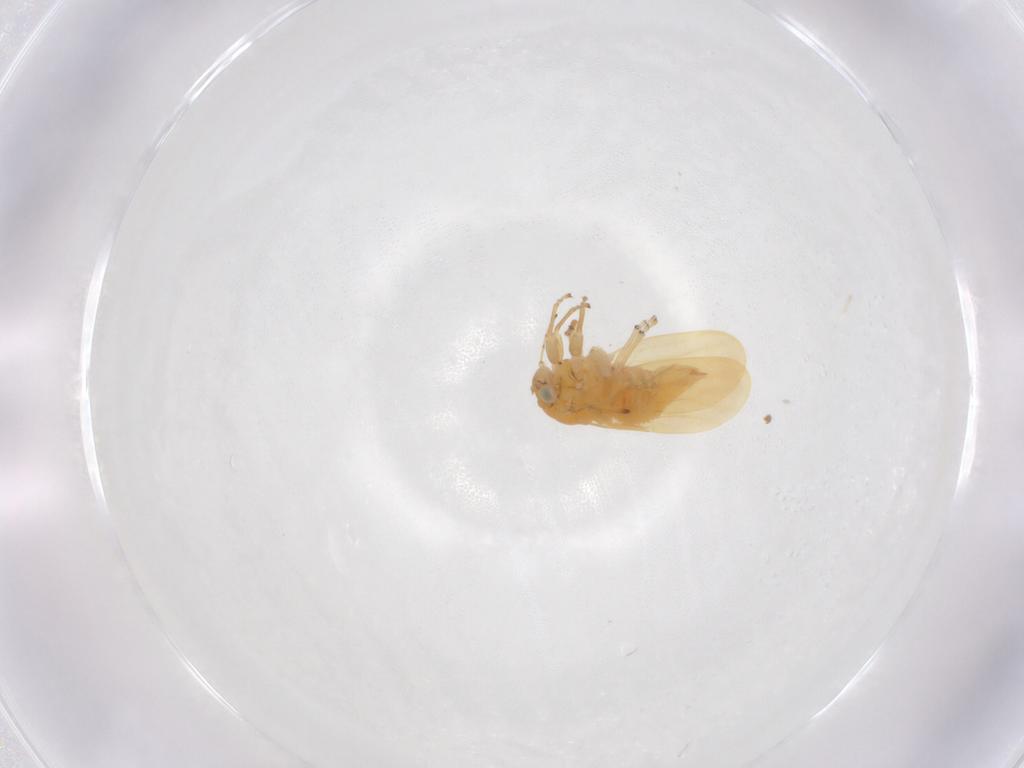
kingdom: Animalia
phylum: Arthropoda
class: Insecta
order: Hemiptera
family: Liviidae
